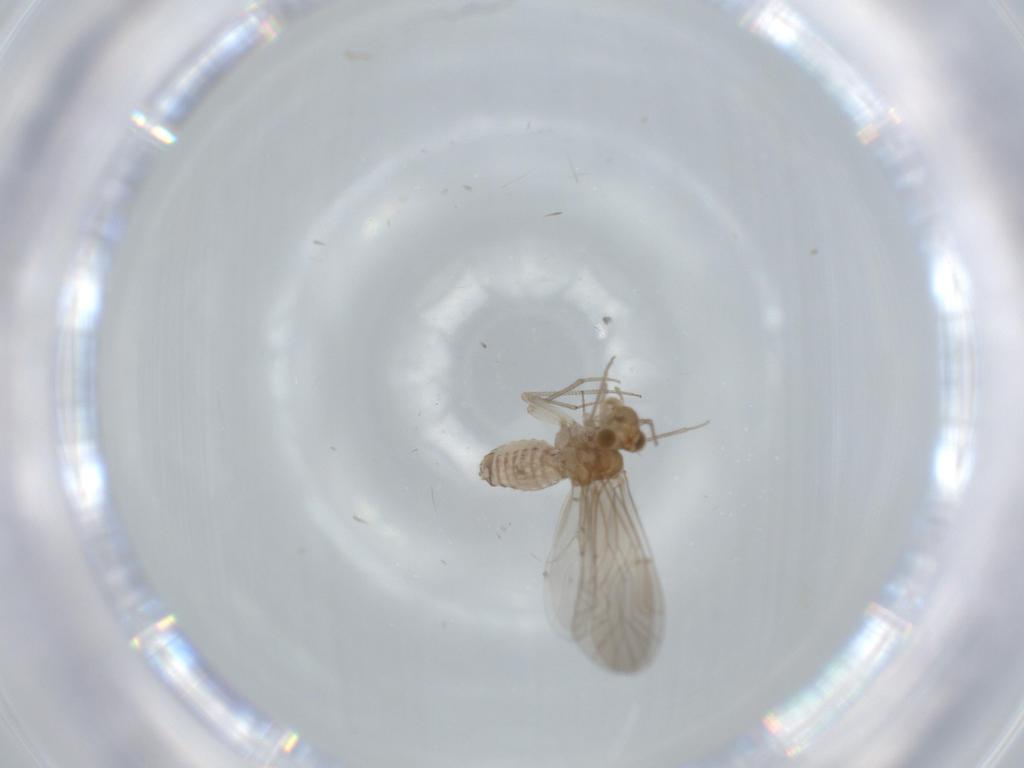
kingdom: Animalia
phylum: Arthropoda
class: Insecta
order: Psocodea
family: Lachesillidae
